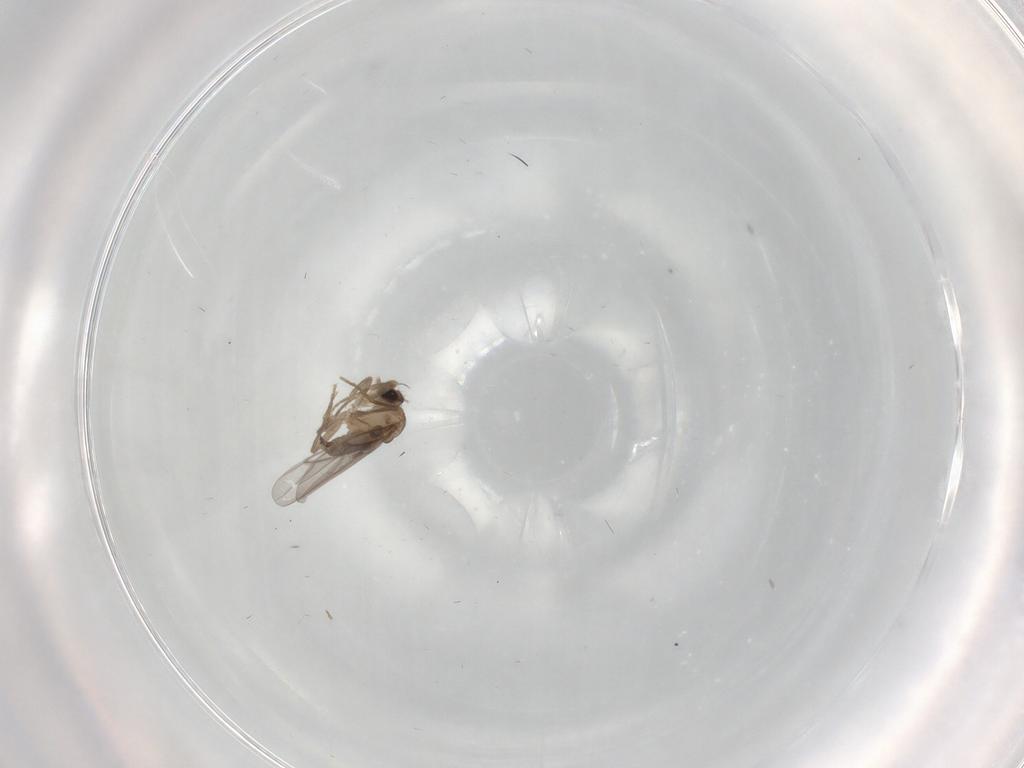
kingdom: Animalia
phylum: Arthropoda
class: Insecta
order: Diptera
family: Chironomidae
